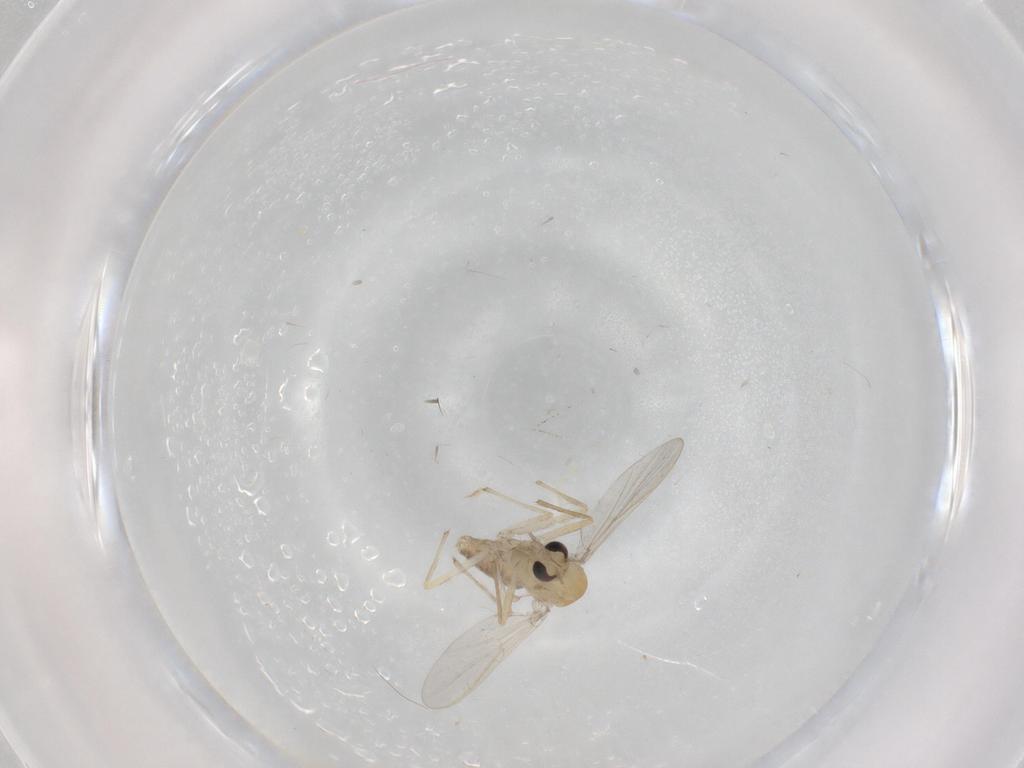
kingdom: Animalia
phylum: Arthropoda
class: Insecta
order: Diptera
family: Chironomidae
